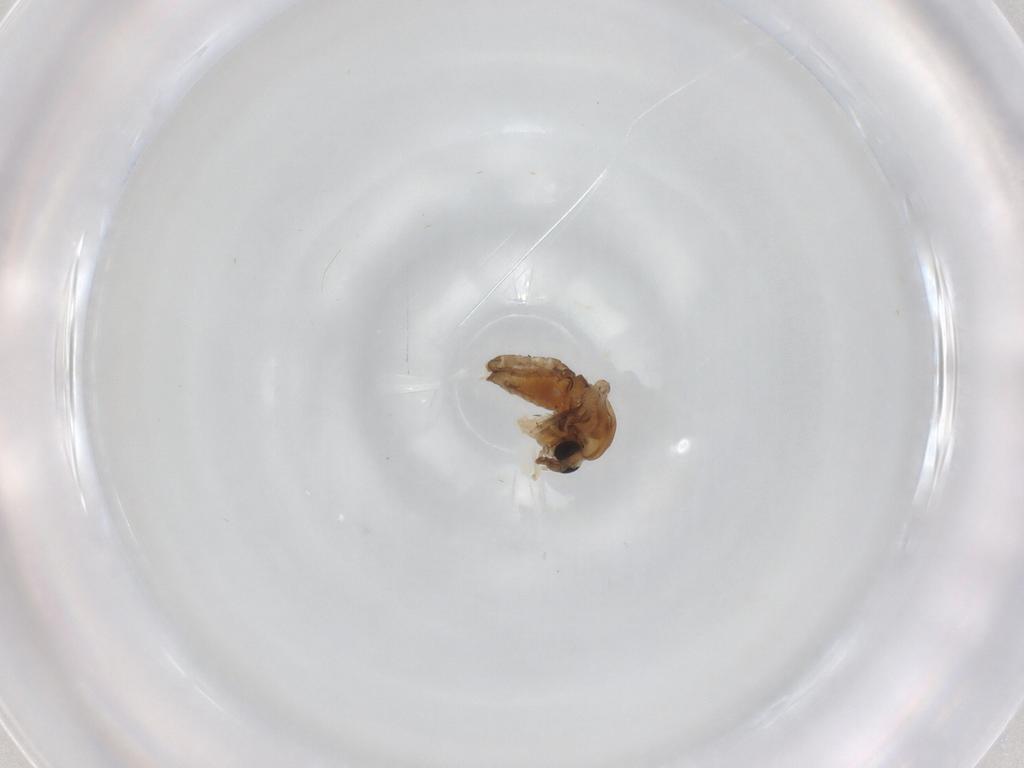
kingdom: Animalia
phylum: Arthropoda
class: Insecta
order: Diptera
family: Chironomidae
